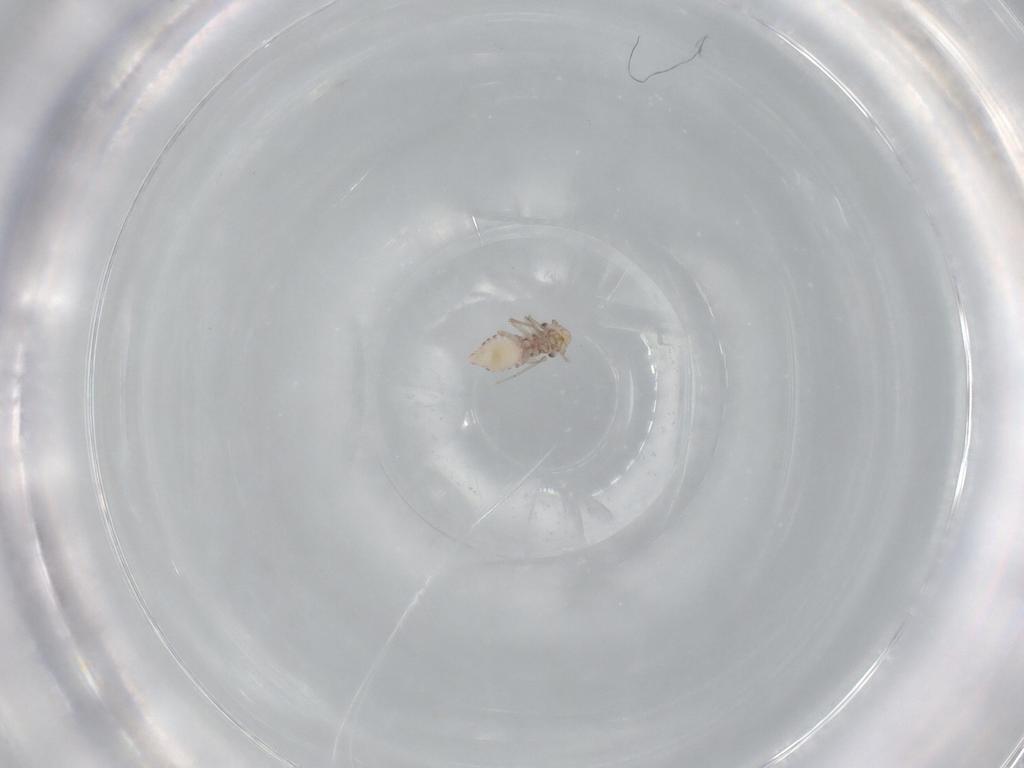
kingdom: Animalia
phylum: Arthropoda
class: Insecta
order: Psocodea
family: Lepidopsocidae
